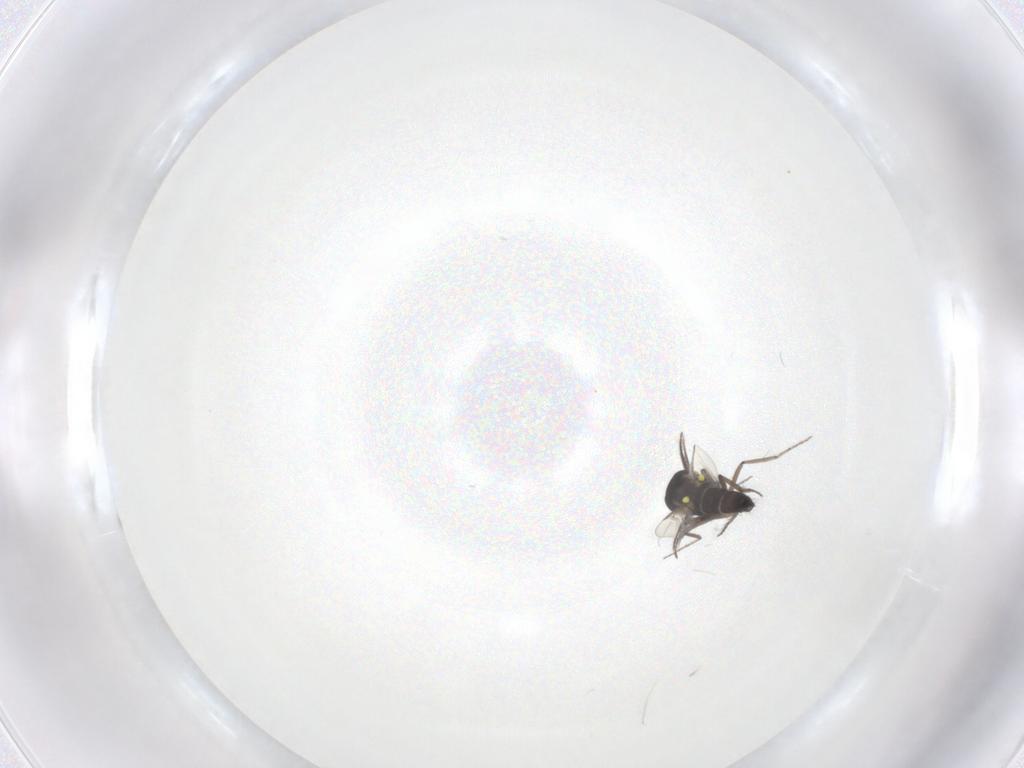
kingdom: Animalia
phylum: Arthropoda
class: Insecta
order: Diptera
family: Ceratopogonidae
